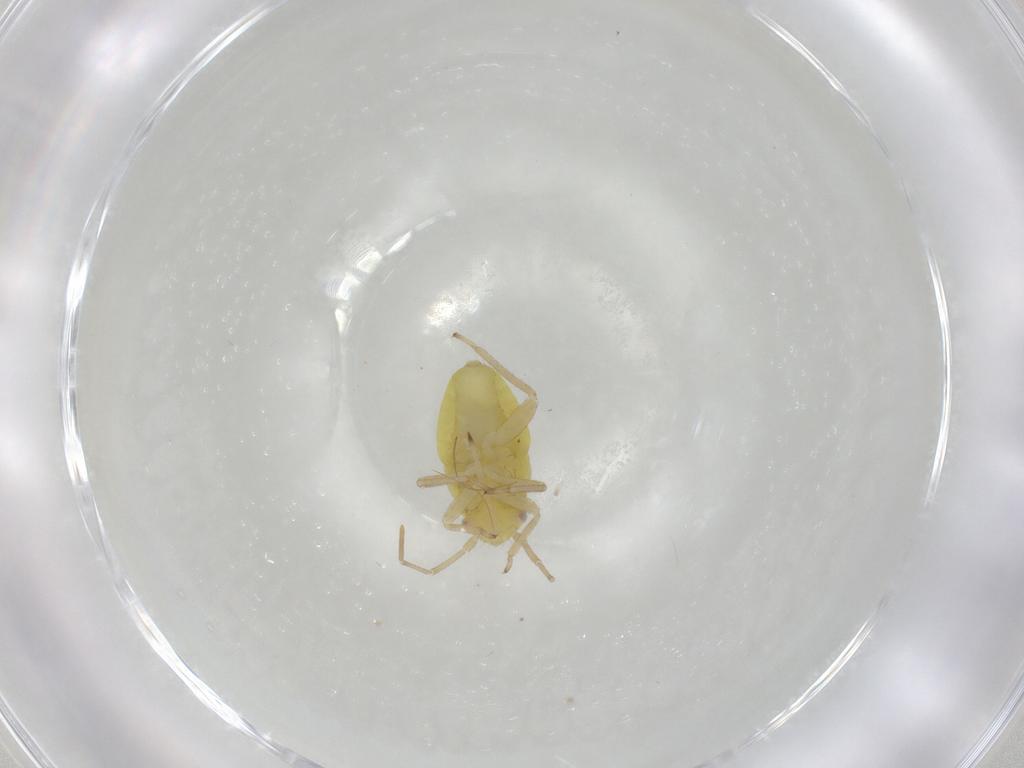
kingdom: Animalia
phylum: Arthropoda
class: Insecta
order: Hemiptera
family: Miridae
